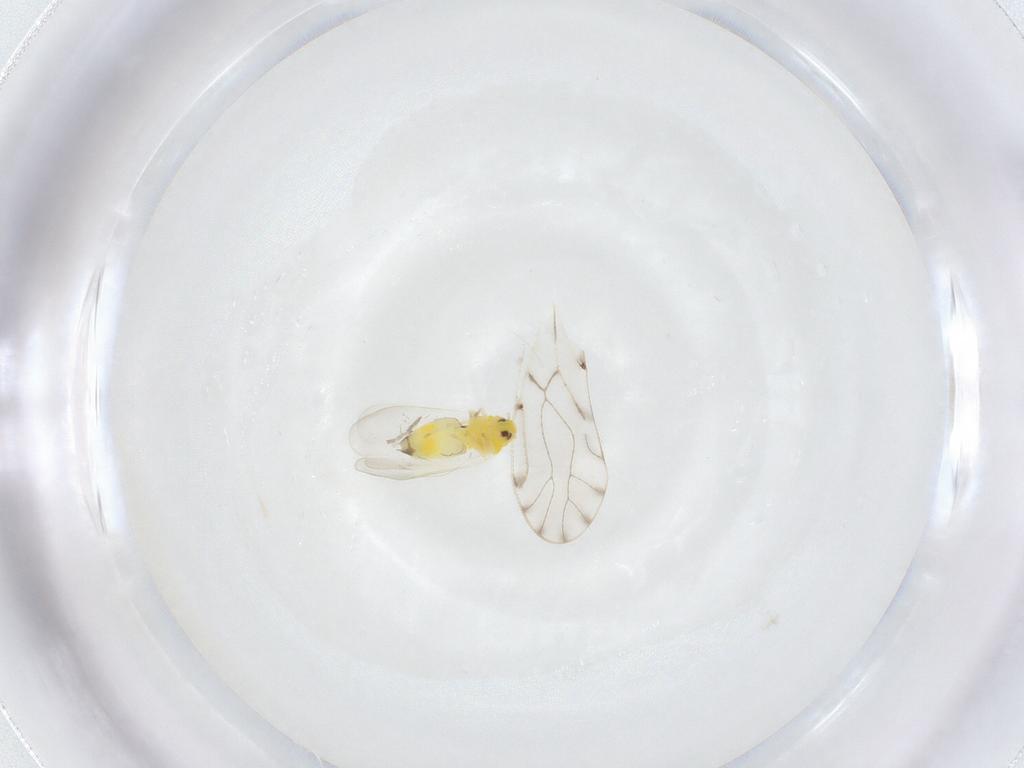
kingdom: Animalia
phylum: Arthropoda
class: Insecta
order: Hemiptera
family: Aleyrodidae
